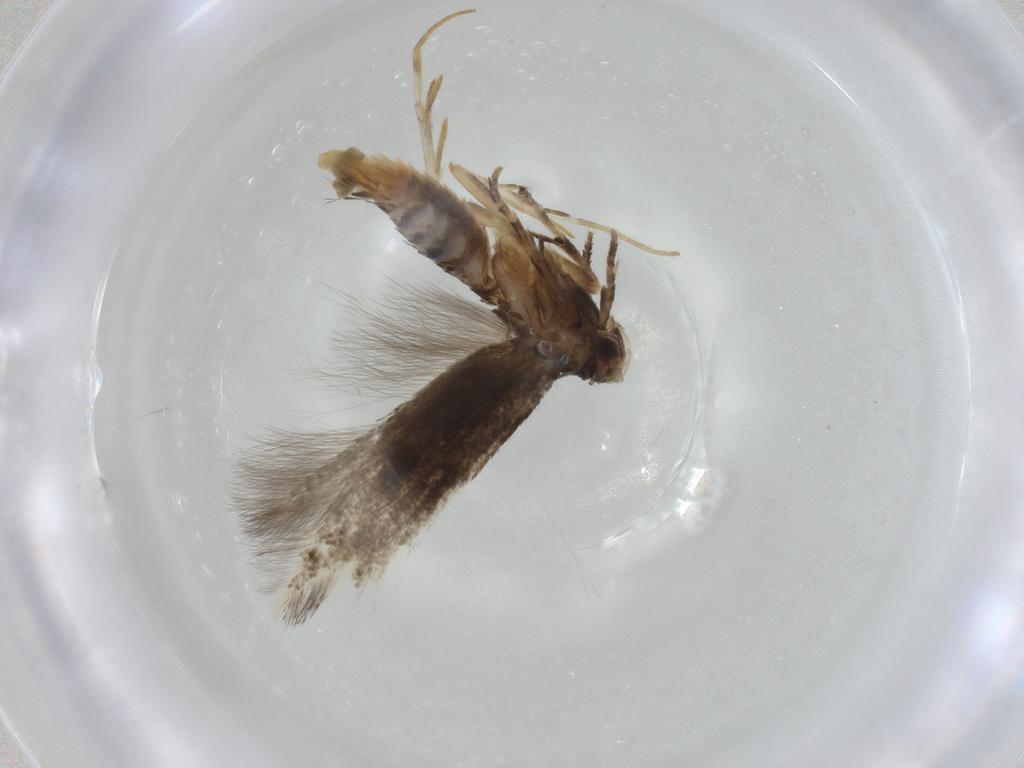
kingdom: Animalia
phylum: Arthropoda
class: Insecta
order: Lepidoptera
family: Elachistidae
